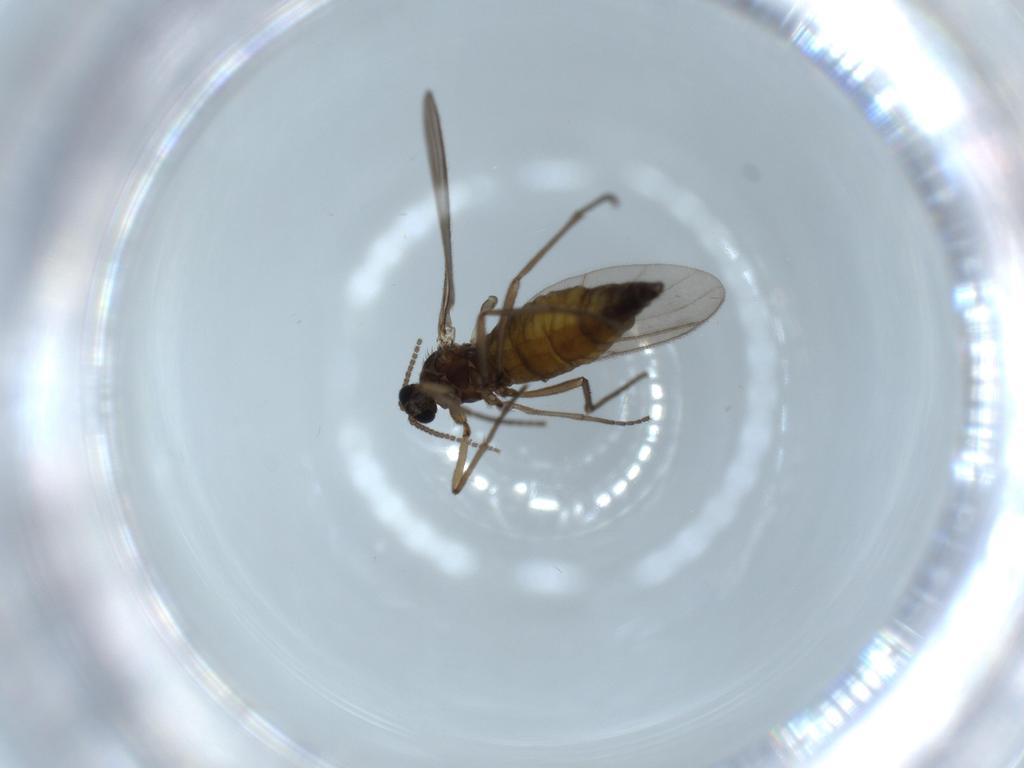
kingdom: Animalia
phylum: Arthropoda
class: Insecta
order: Diptera
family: Sciaridae
